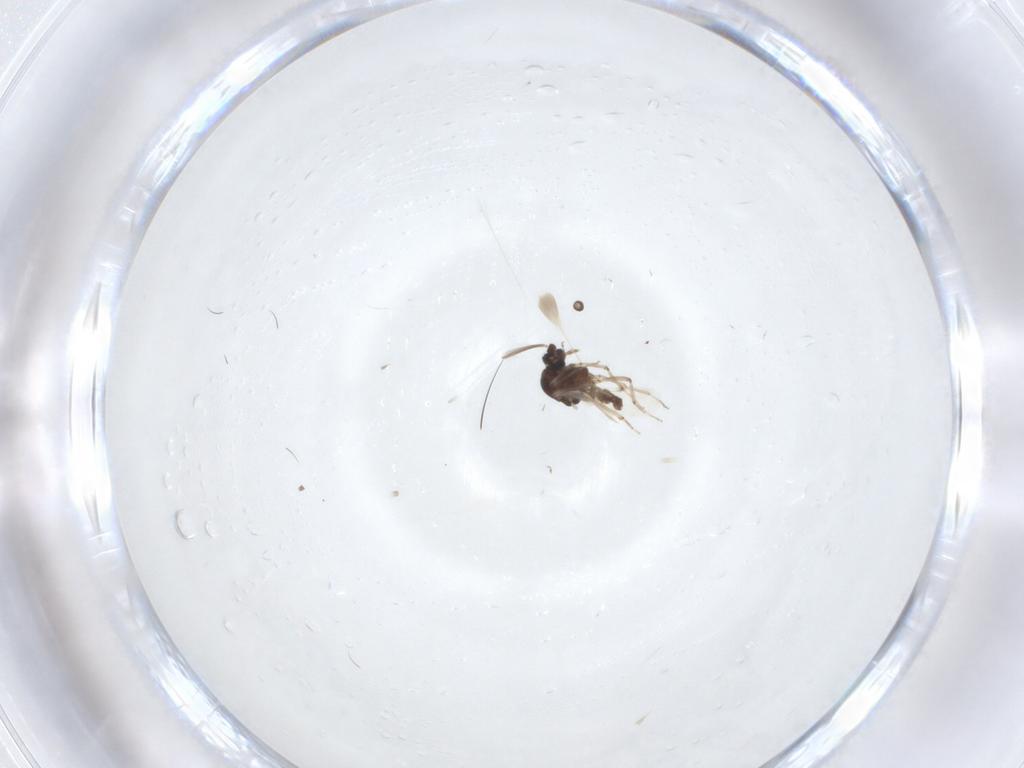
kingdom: Animalia
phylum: Arthropoda
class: Insecta
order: Diptera
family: Ceratopogonidae
